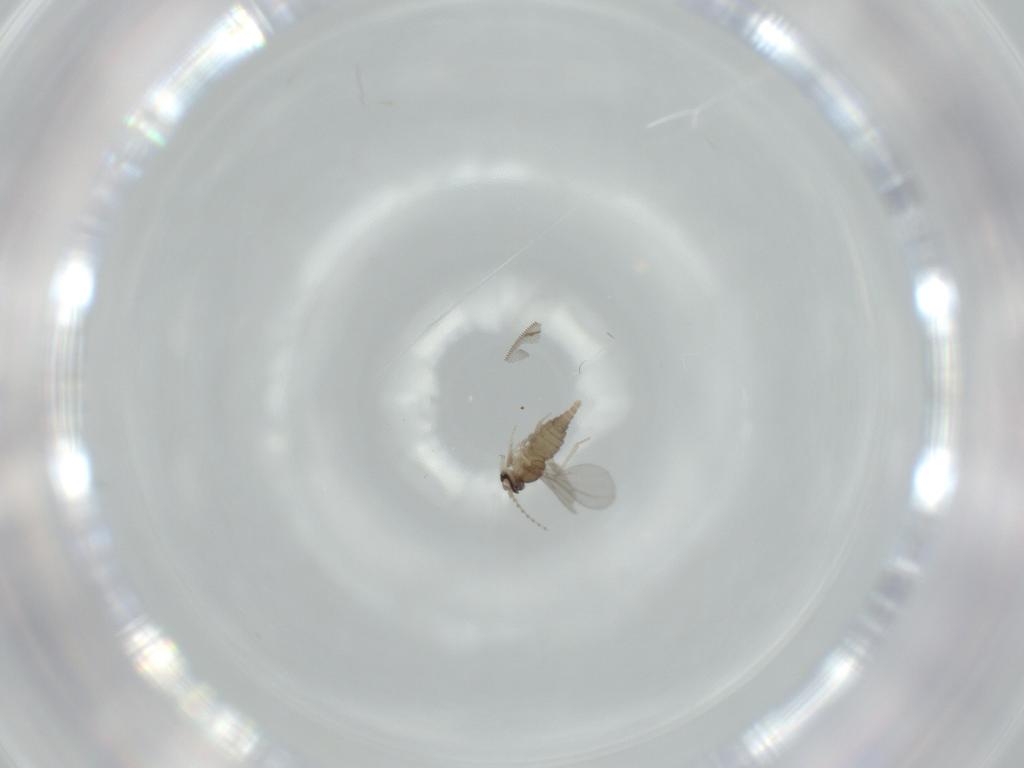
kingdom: Animalia
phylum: Arthropoda
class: Insecta
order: Diptera
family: Cecidomyiidae
